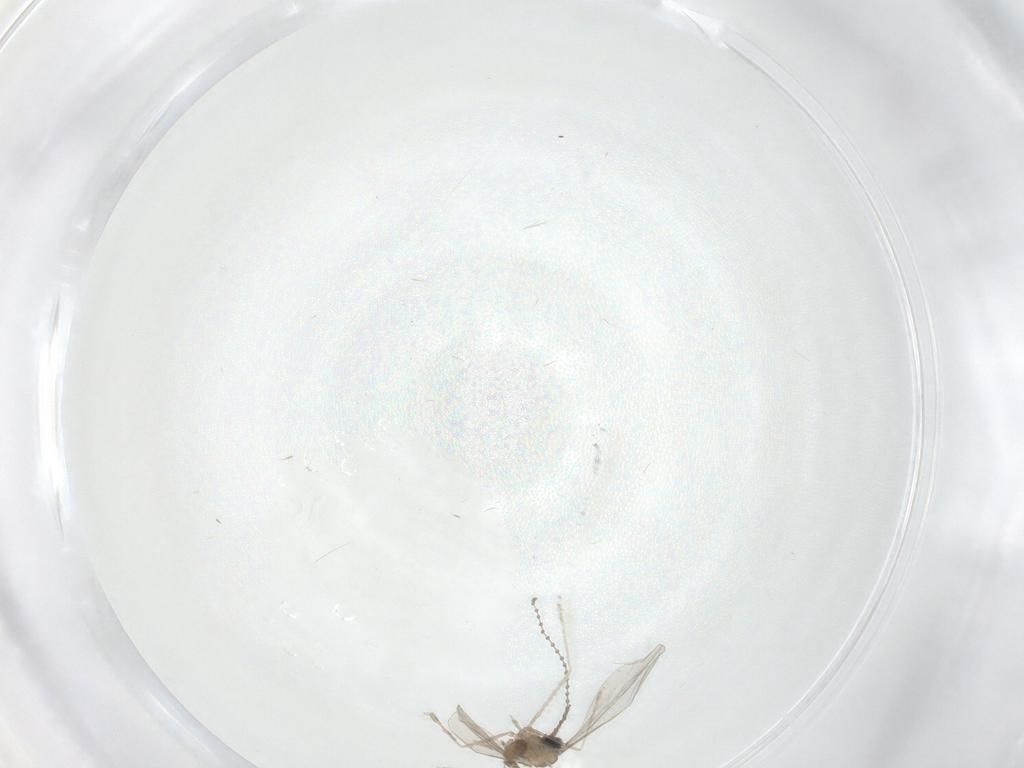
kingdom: Animalia
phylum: Arthropoda
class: Insecta
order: Diptera
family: Cecidomyiidae
